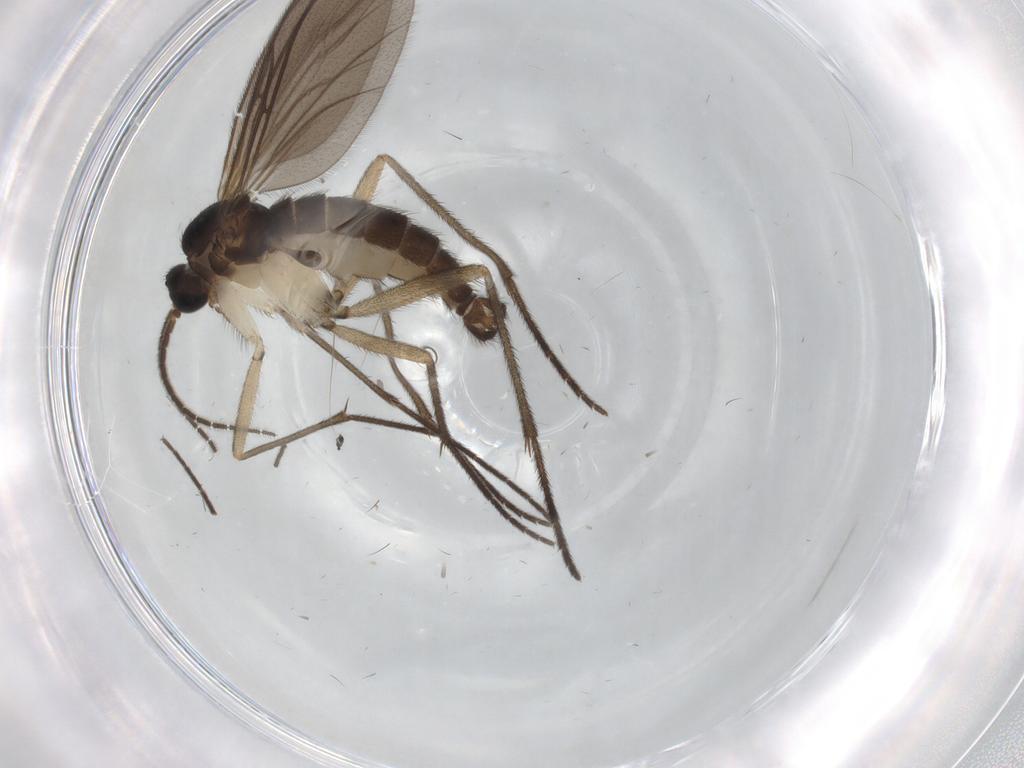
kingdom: Animalia
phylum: Arthropoda
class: Insecta
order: Diptera
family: Sciaridae
